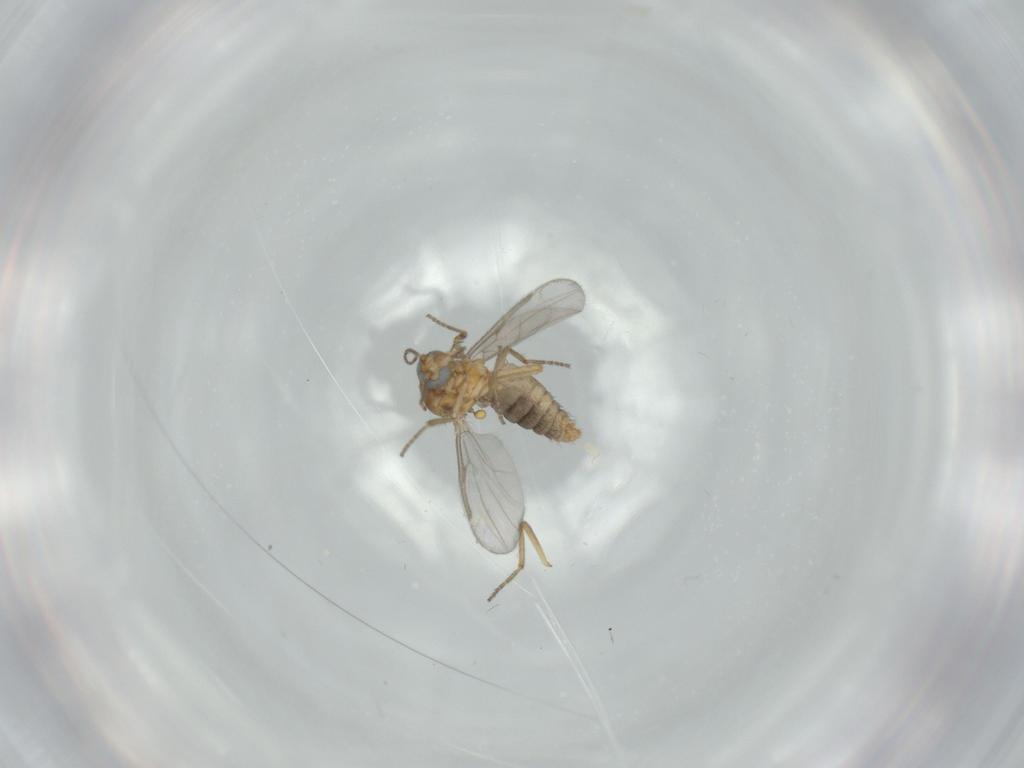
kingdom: Animalia
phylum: Arthropoda
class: Insecta
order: Diptera
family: Ceratopogonidae
